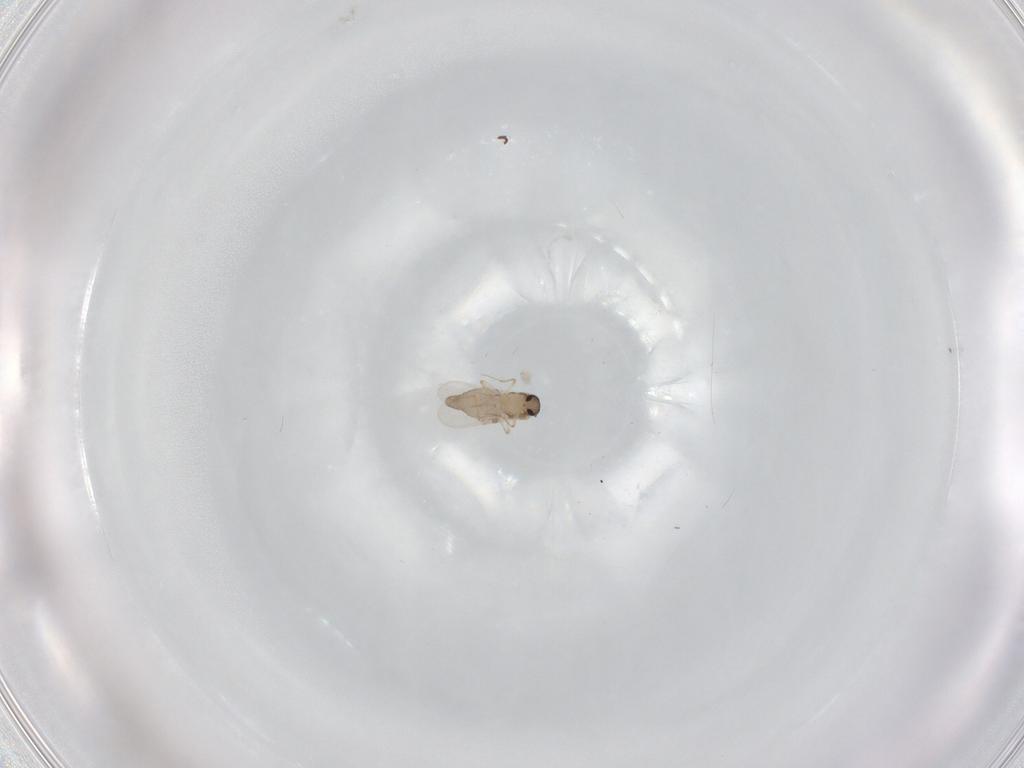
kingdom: Animalia
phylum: Arthropoda
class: Insecta
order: Diptera
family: Ceratopogonidae
